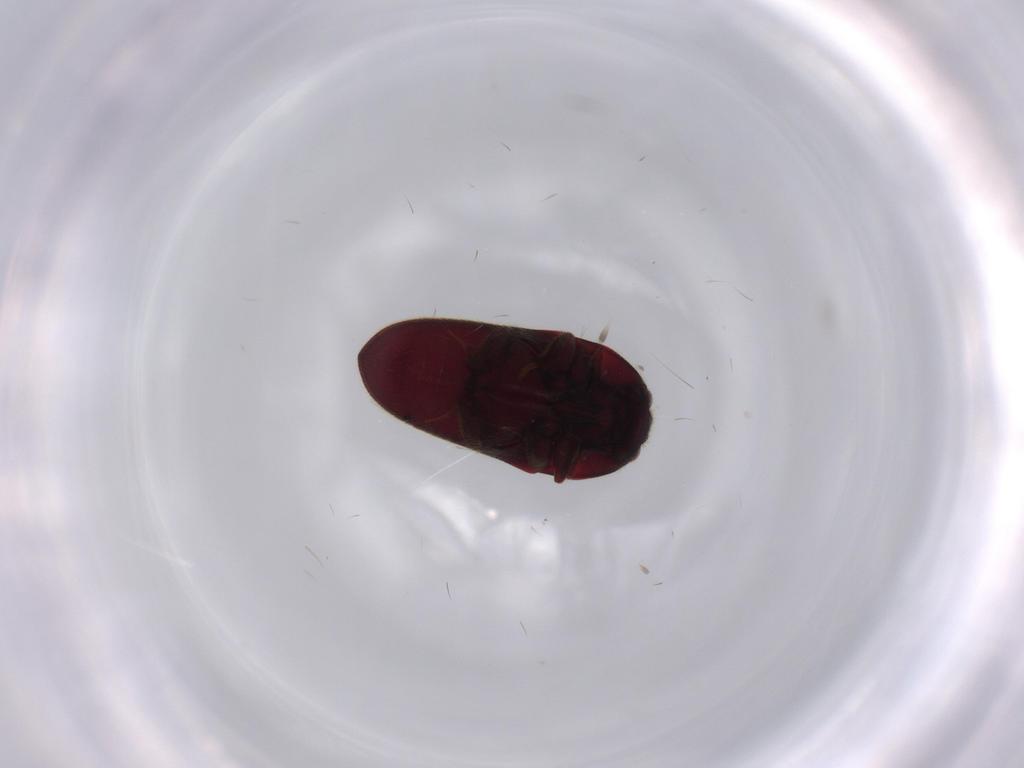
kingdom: Animalia
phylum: Arthropoda
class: Insecta
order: Coleoptera
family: Throscidae
